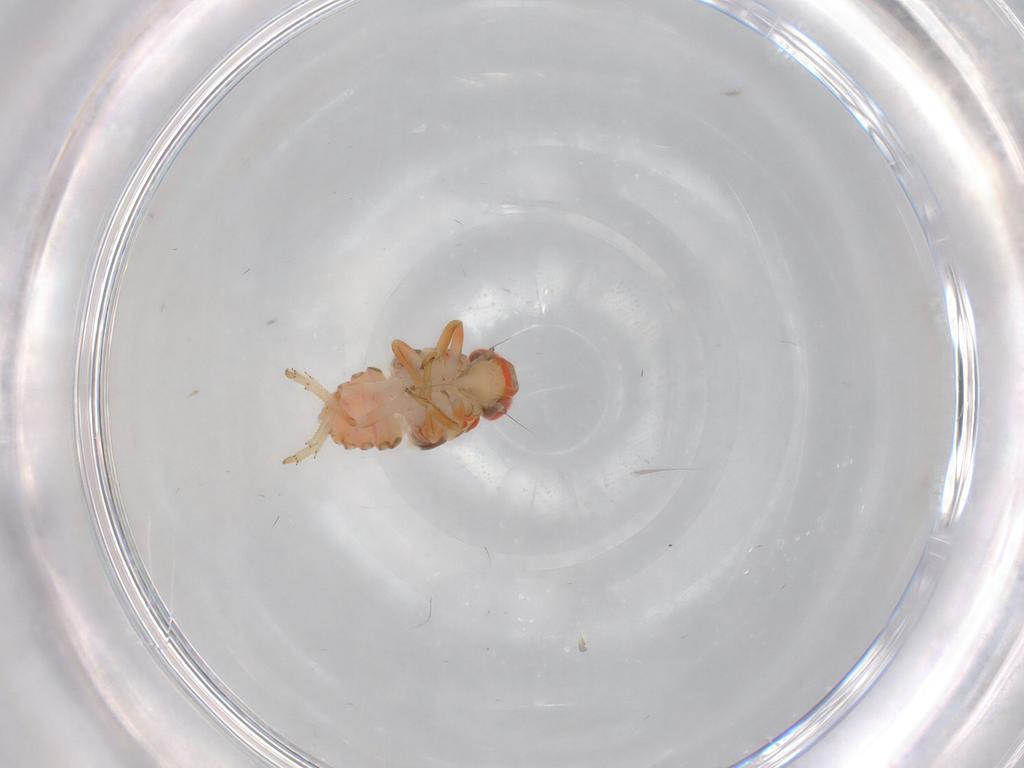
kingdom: Animalia
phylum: Arthropoda
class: Insecta
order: Hemiptera
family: Issidae
